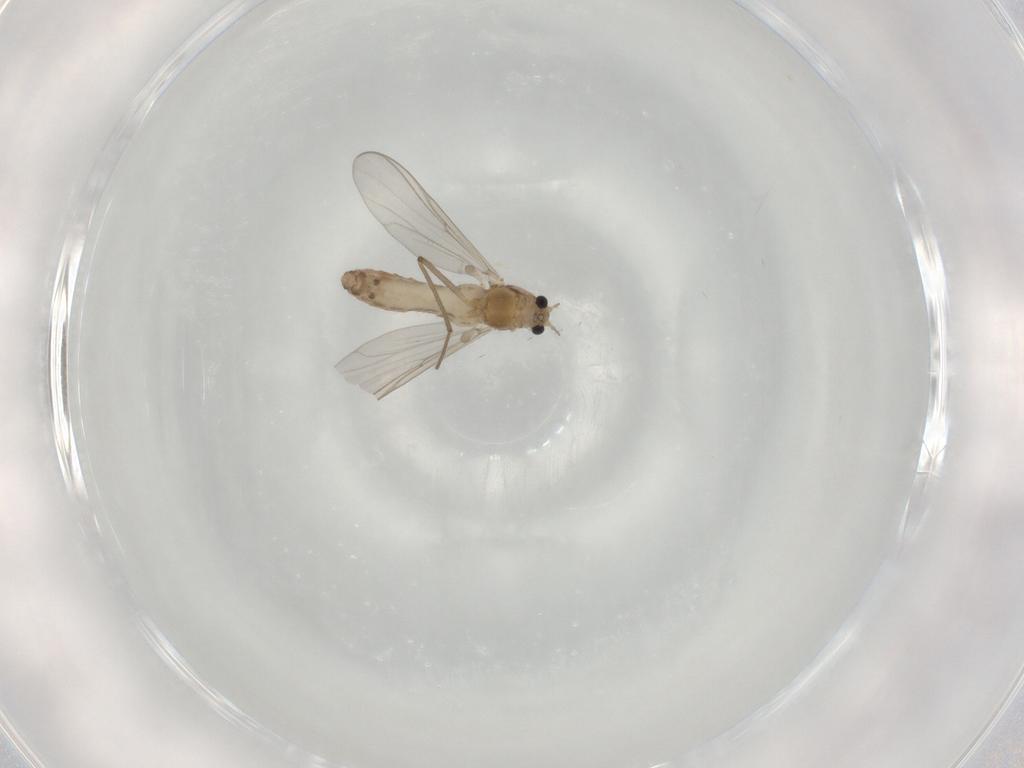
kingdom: Animalia
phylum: Arthropoda
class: Insecta
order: Diptera
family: Chironomidae
